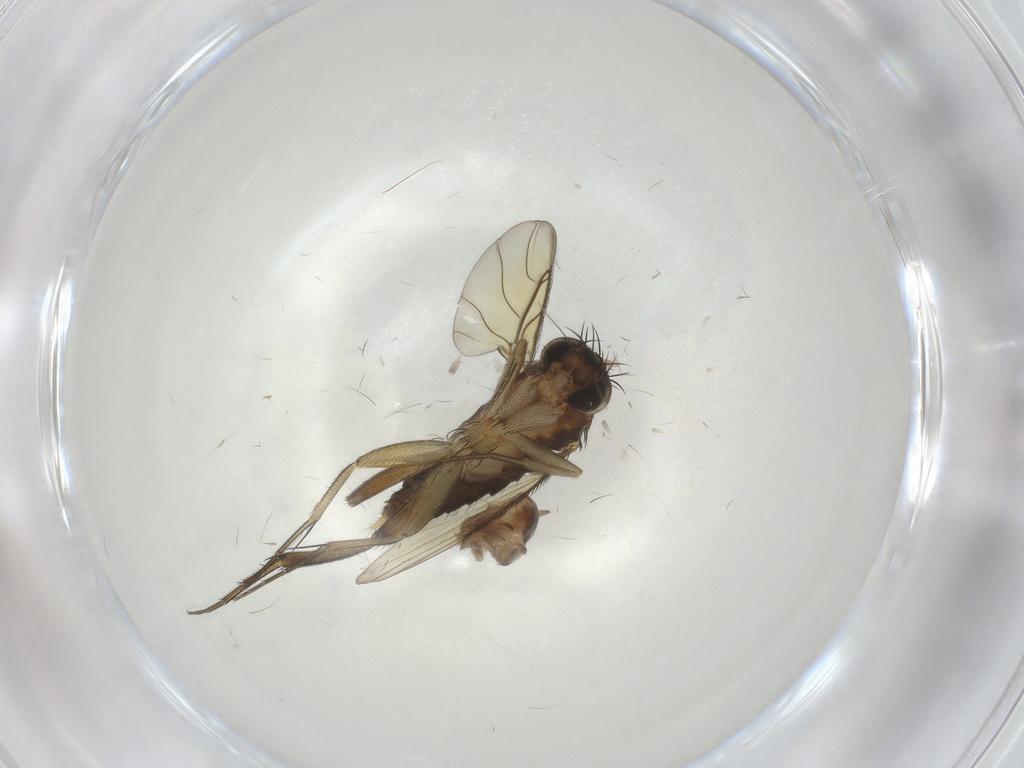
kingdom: Animalia
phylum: Arthropoda
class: Insecta
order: Diptera
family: Phoridae
